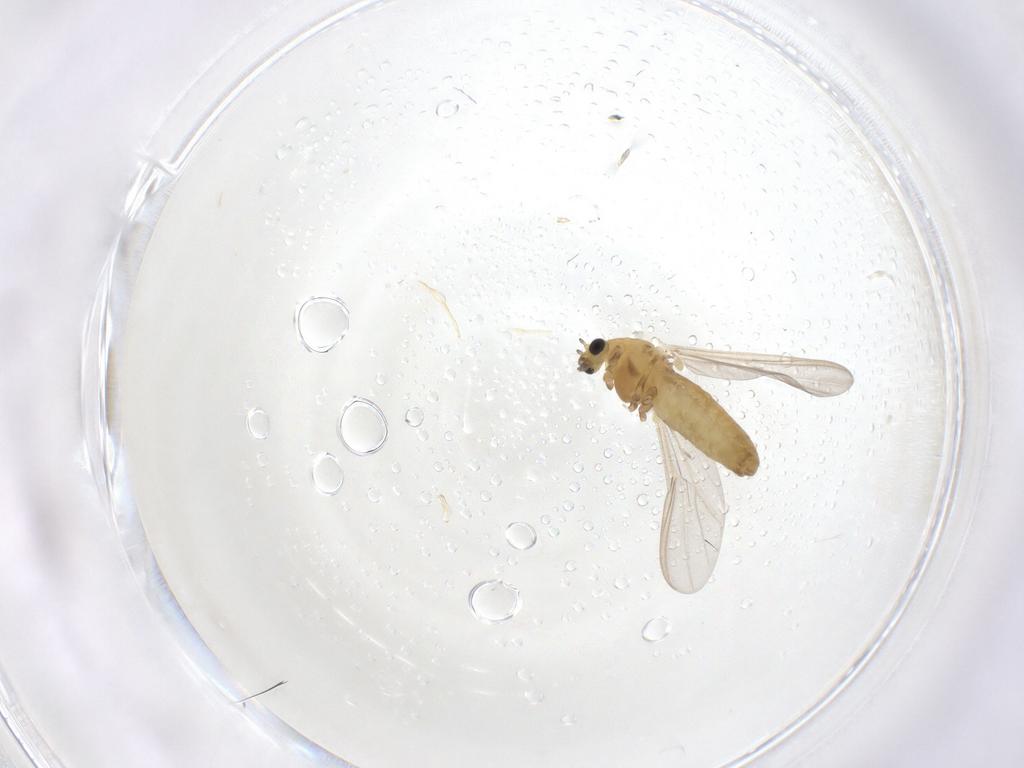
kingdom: Animalia
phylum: Arthropoda
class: Insecta
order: Diptera
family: Chironomidae
